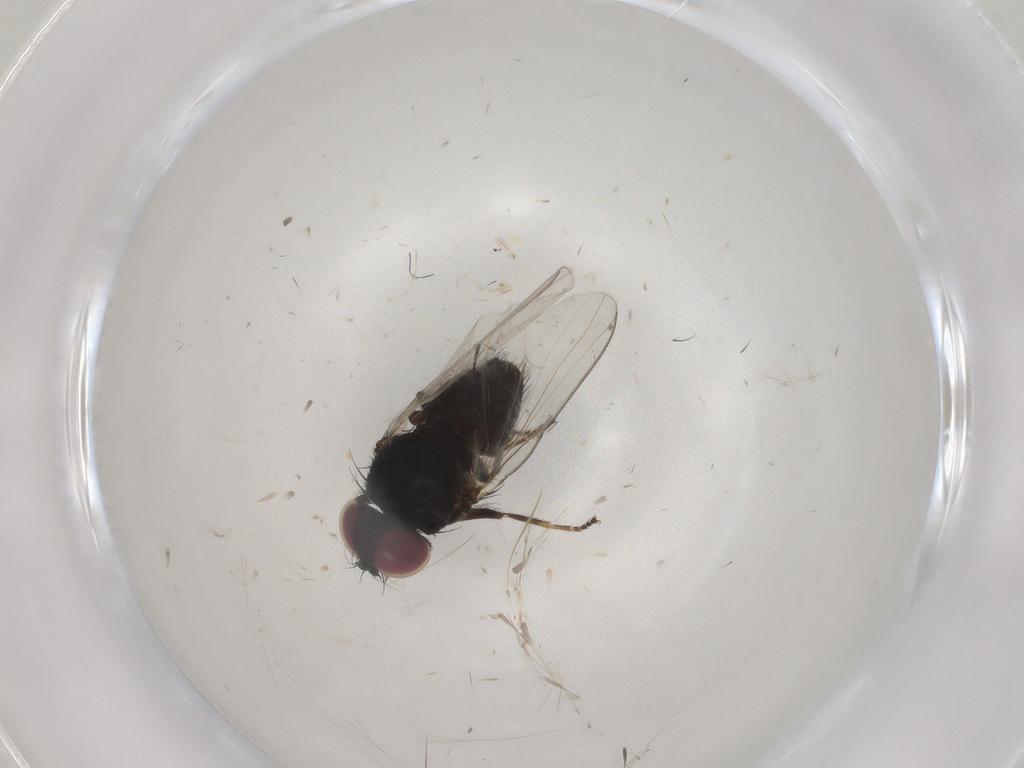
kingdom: Animalia
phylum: Arthropoda
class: Insecta
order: Diptera
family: Milichiidae
